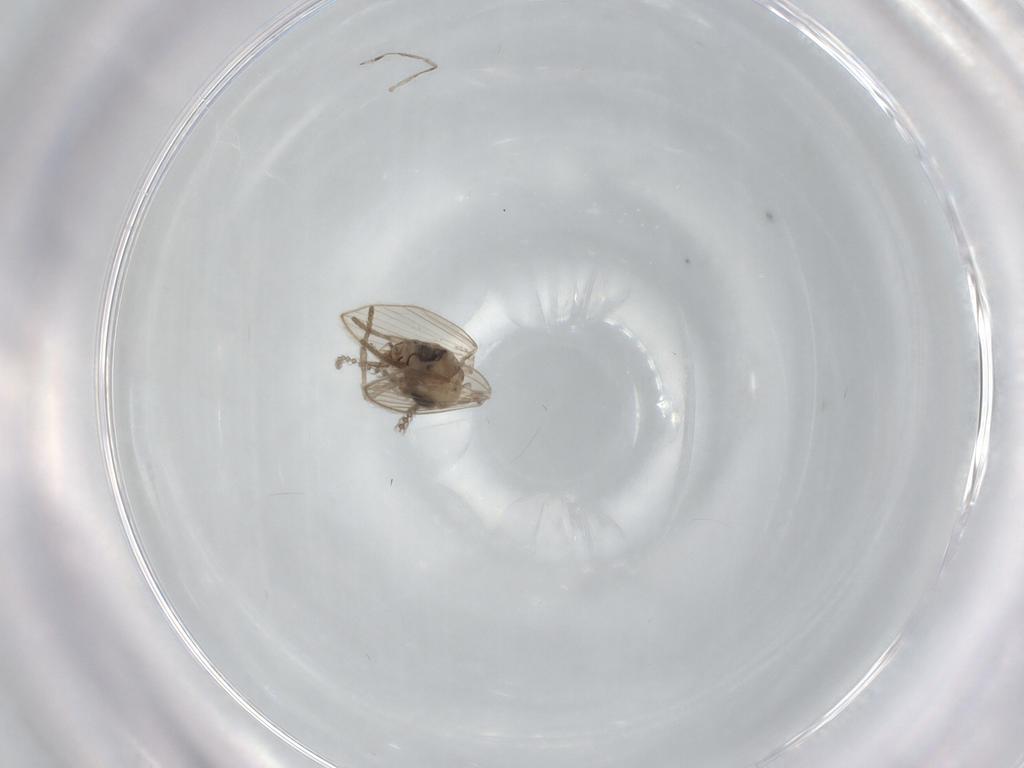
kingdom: Animalia
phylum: Arthropoda
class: Insecta
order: Diptera
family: Psychodidae
